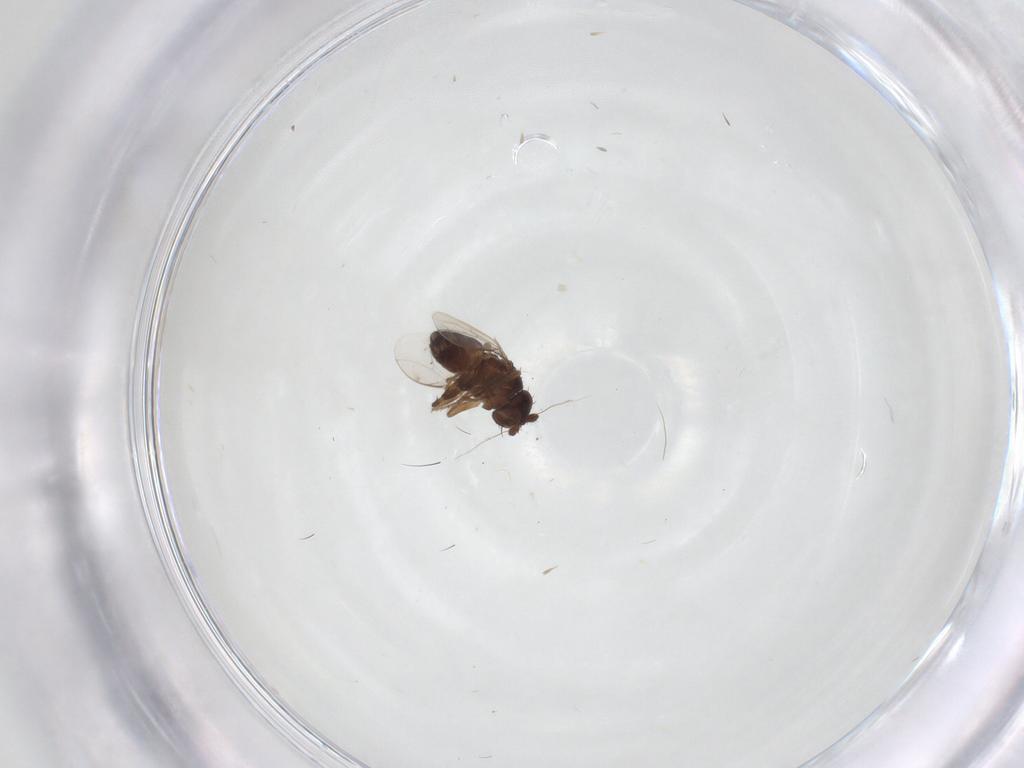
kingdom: Animalia
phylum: Arthropoda
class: Insecta
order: Diptera
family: Sphaeroceridae
